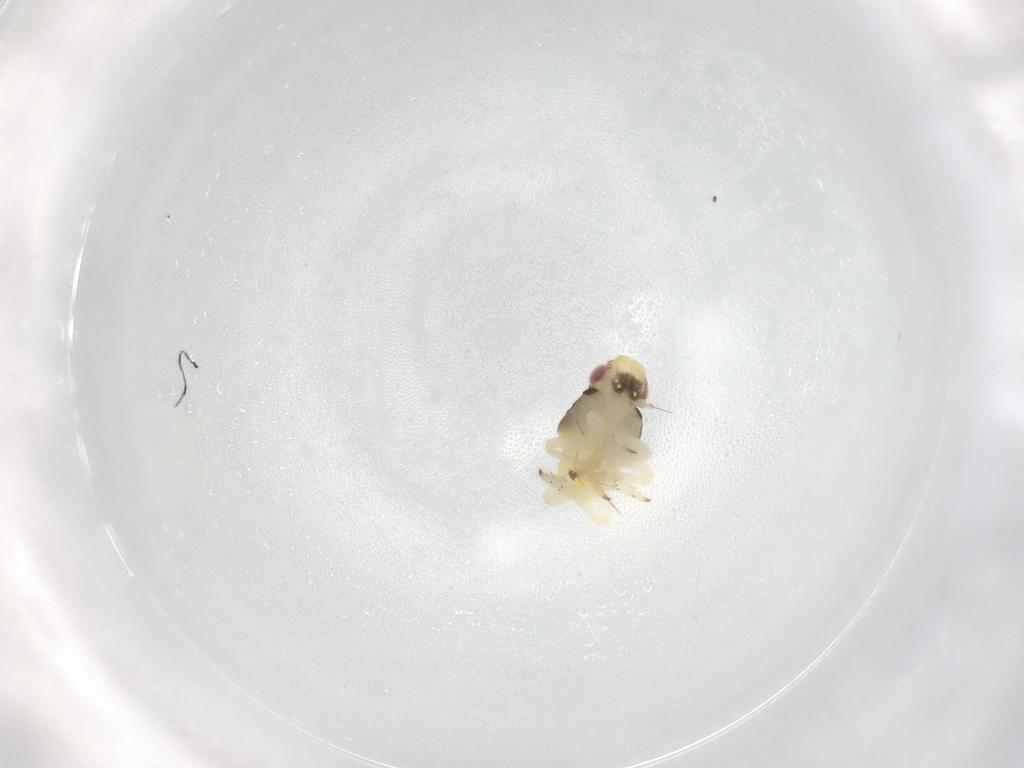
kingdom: Animalia
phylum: Arthropoda
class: Insecta
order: Hemiptera
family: Caliscelidae
